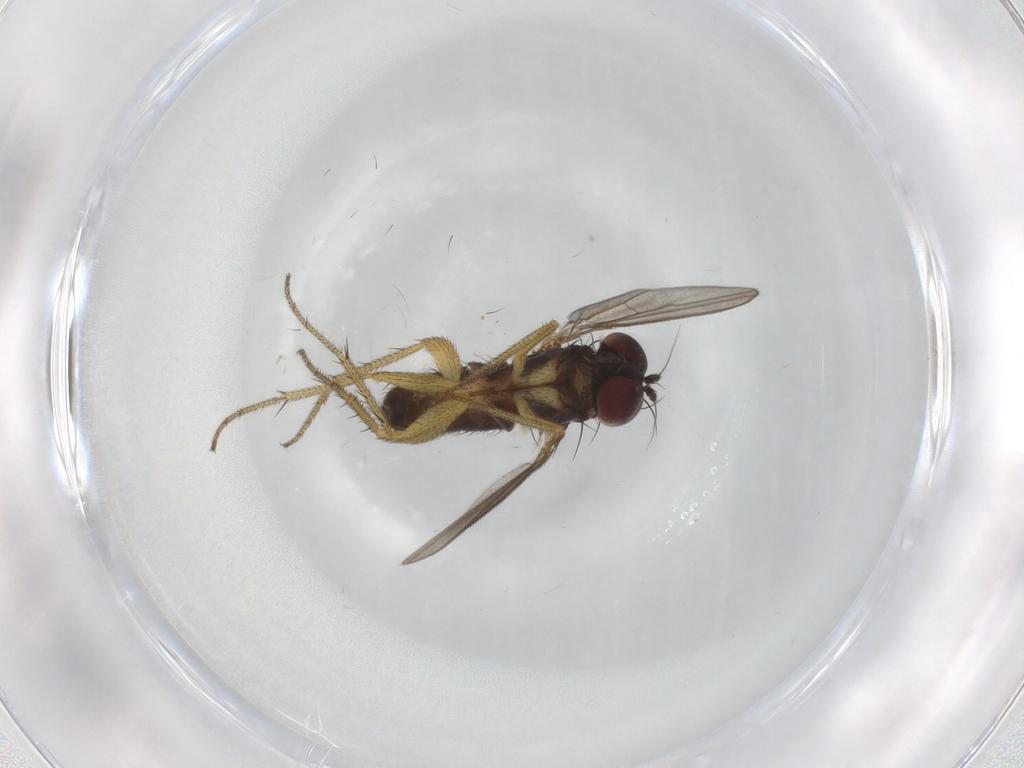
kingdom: Animalia
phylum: Arthropoda
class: Insecta
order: Diptera
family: Dolichopodidae
